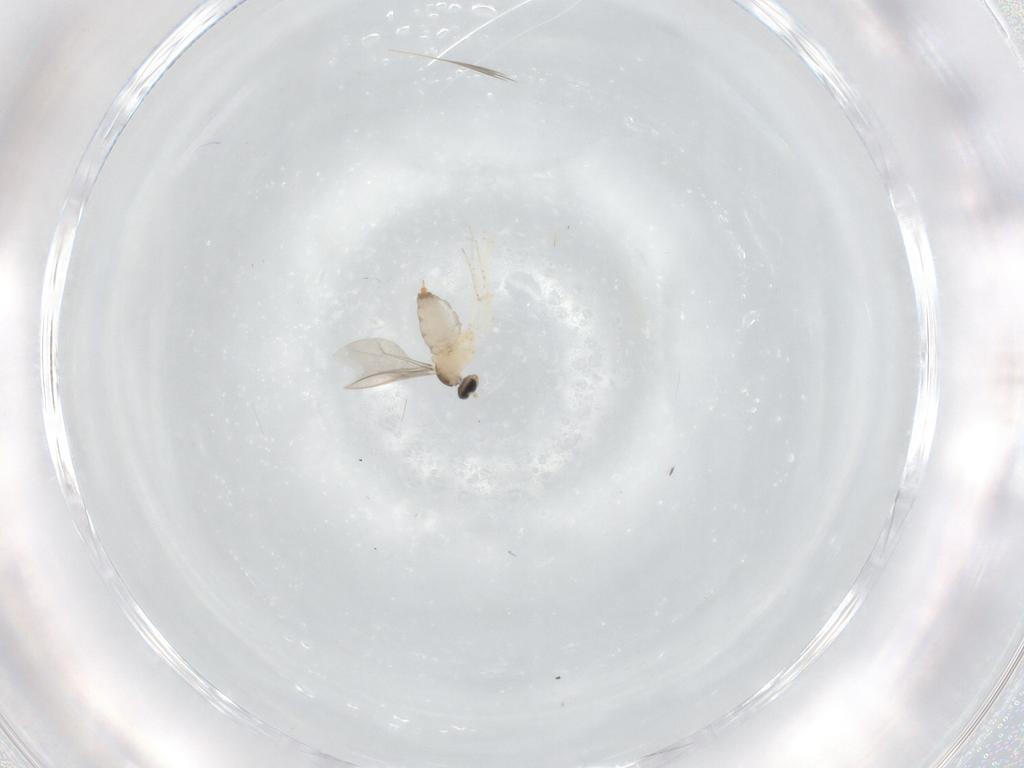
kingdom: Animalia
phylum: Arthropoda
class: Insecta
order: Diptera
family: Cecidomyiidae
